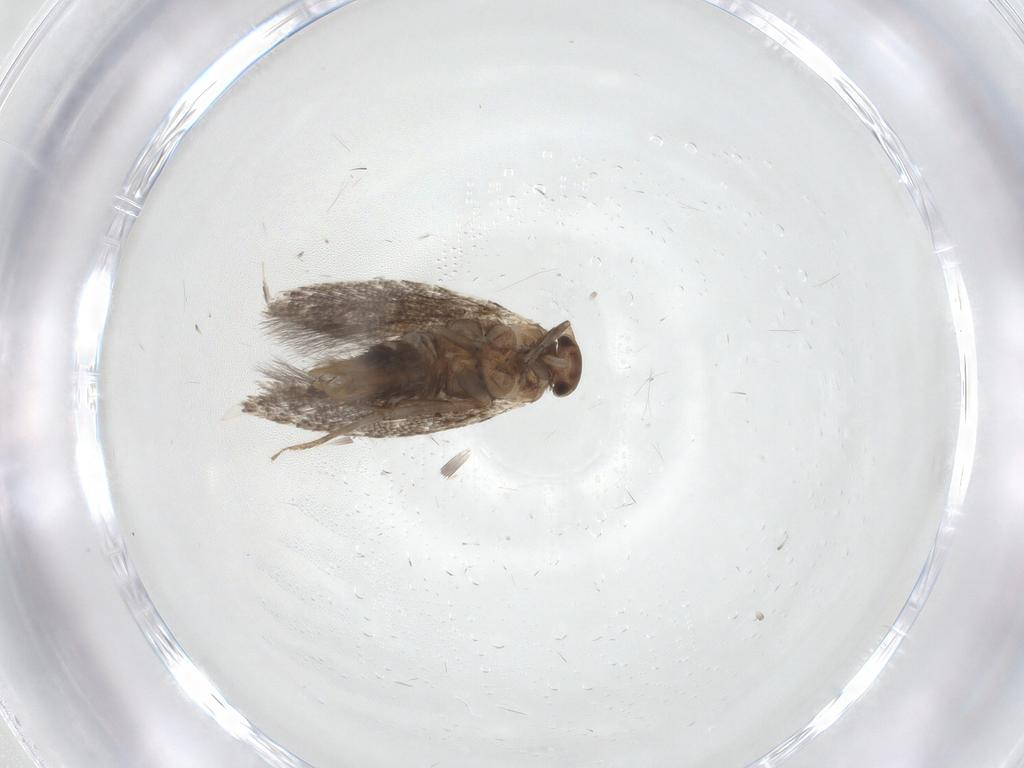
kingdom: Animalia
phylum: Arthropoda
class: Insecta
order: Lepidoptera
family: Elachistidae
